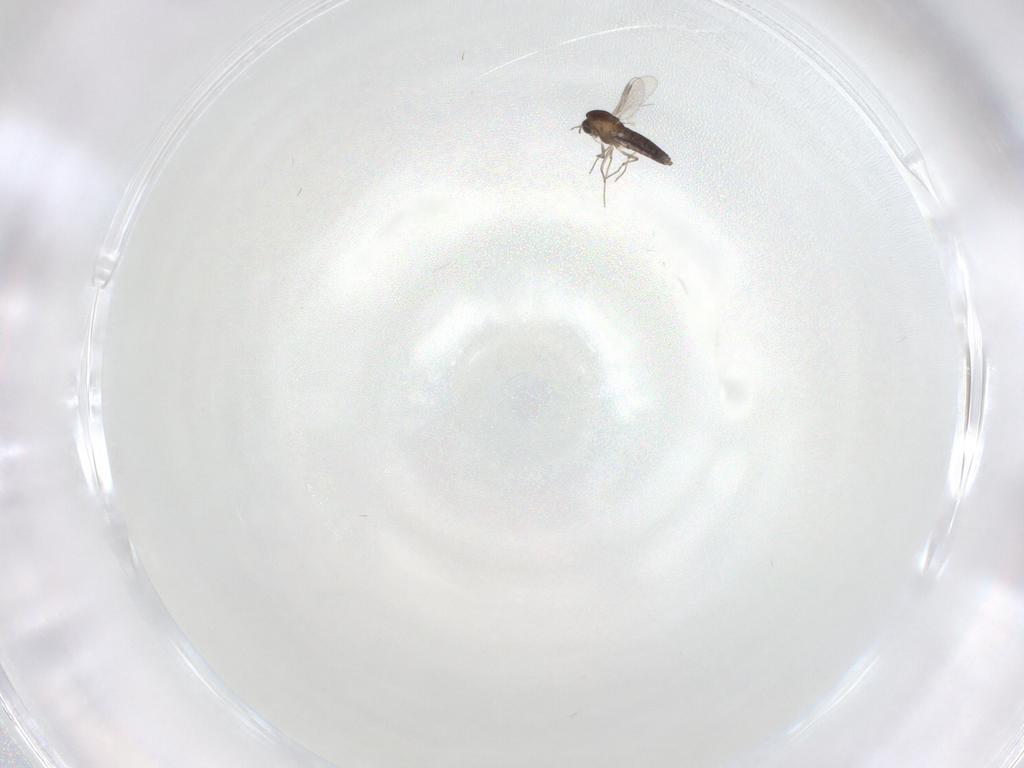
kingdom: Animalia
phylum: Arthropoda
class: Insecta
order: Diptera
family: Chironomidae
